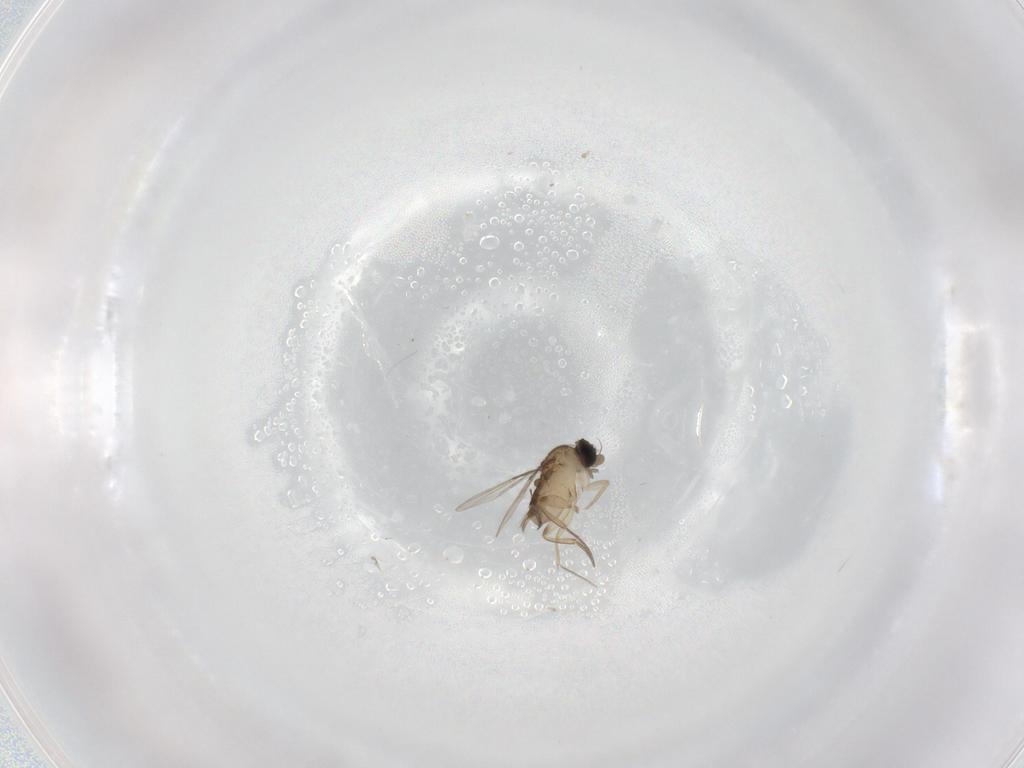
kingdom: Animalia
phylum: Arthropoda
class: Insecta
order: Diptera
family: Phoridae
